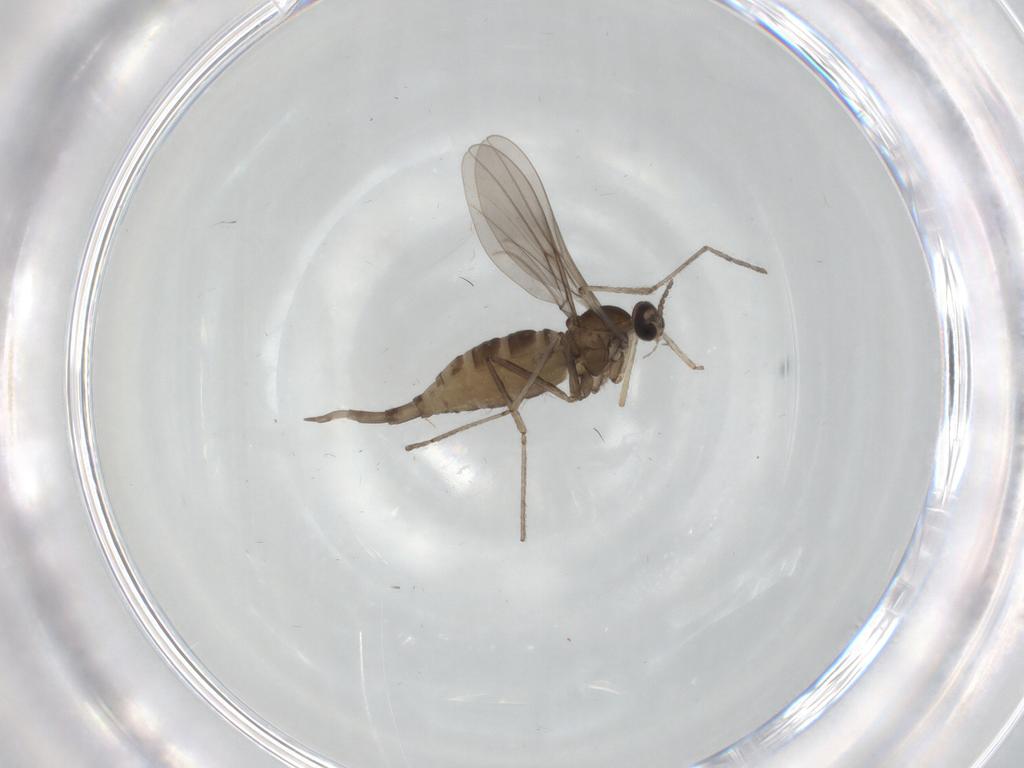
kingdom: Animalia
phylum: Arthropoda
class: Insecta
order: Diptera
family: Cecidomyiidae
